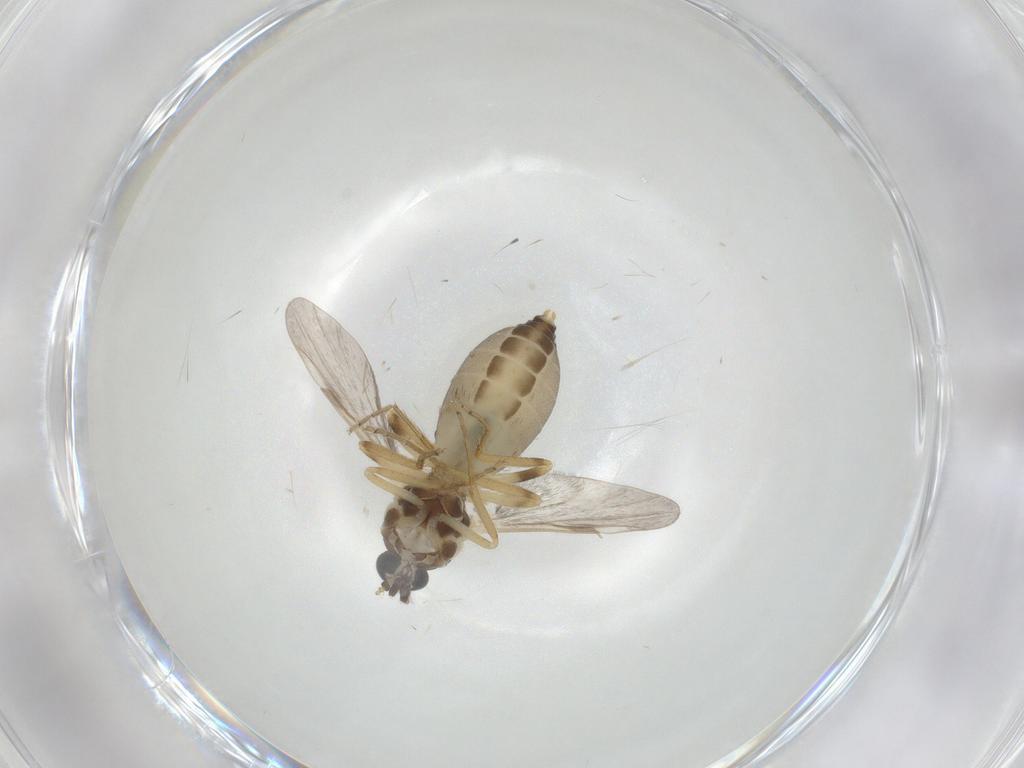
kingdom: Animalia
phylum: Arthropoda
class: Insecta
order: Diptera
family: Ceratopogonidae
